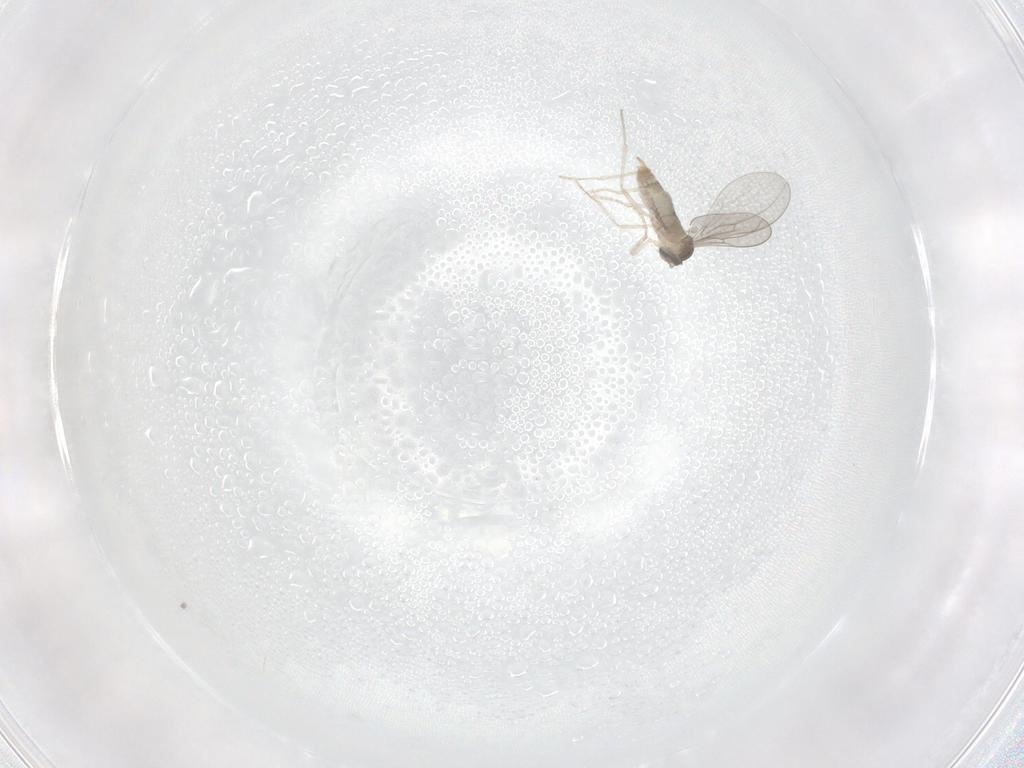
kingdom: Animalia
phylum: Arthropoda
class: Insecta
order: Diptera
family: Cecidomyiidae
